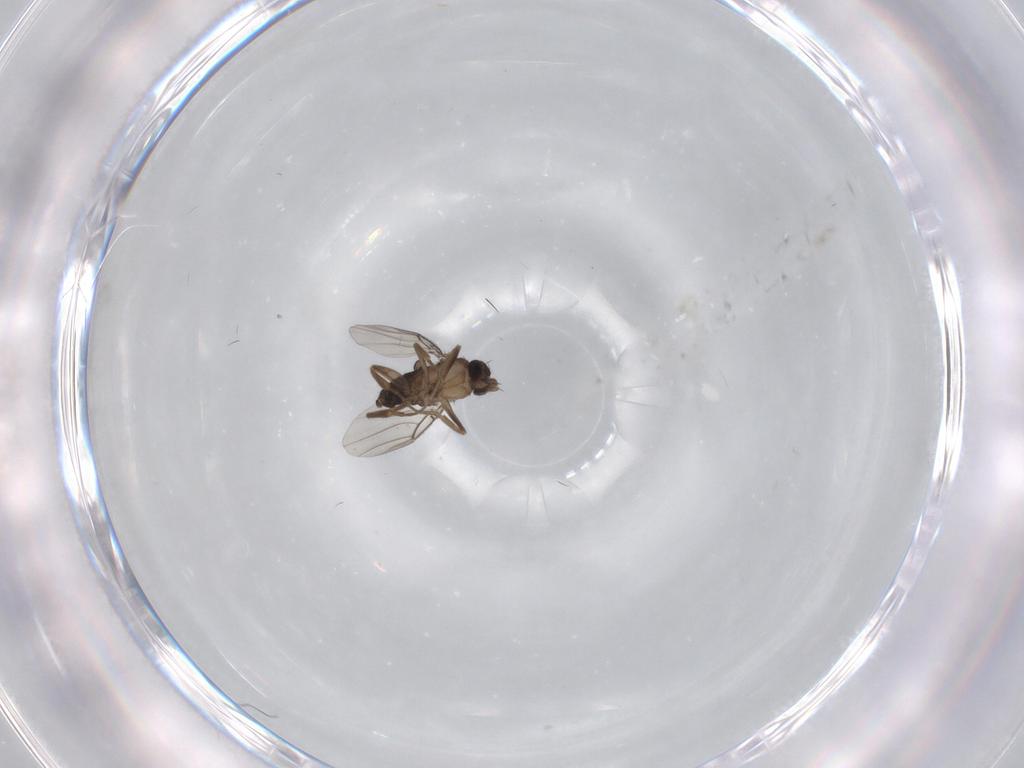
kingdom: Animalia
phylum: Arthropoda
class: Insecta
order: Diptera
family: Phoridae
